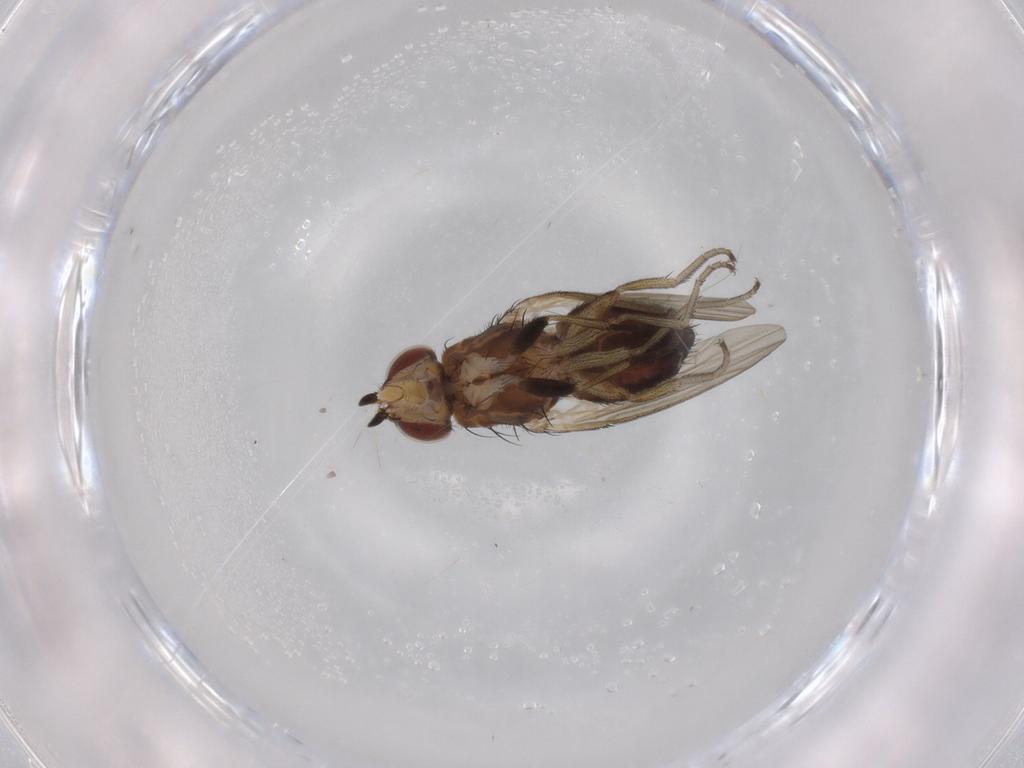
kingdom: Animalia
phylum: Arthropoda
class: Insecta
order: Diptera
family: Heleomyzidae
